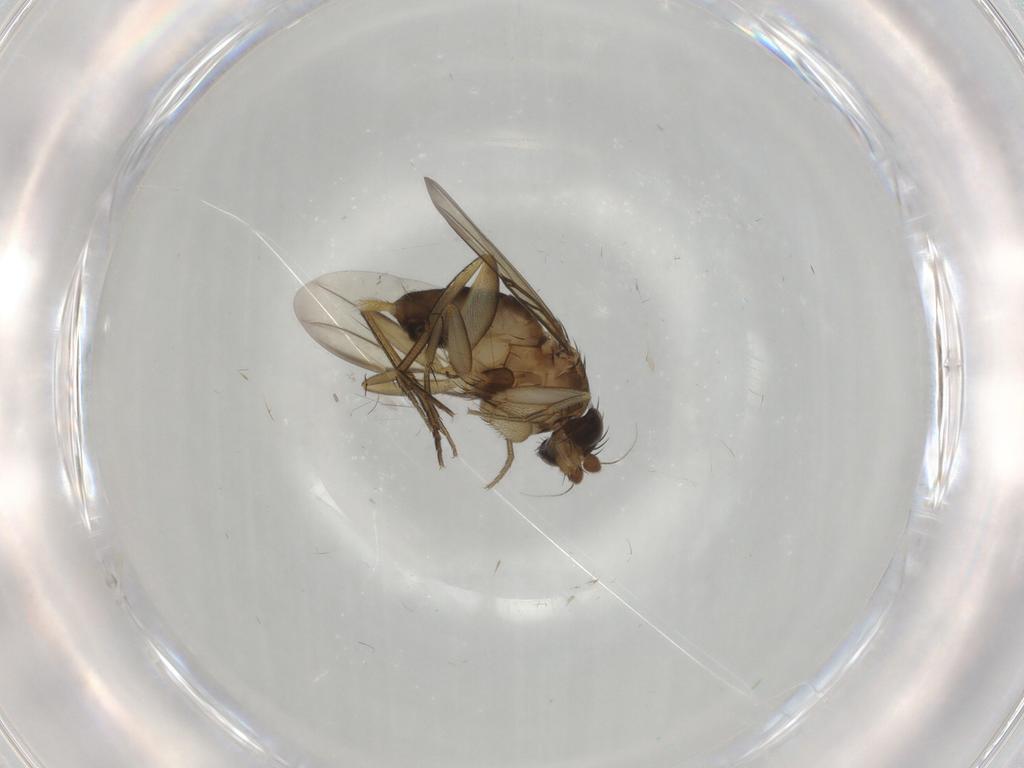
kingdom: Animalia
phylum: Arthropoda
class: Insecta
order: Diptera
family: Phoridae
